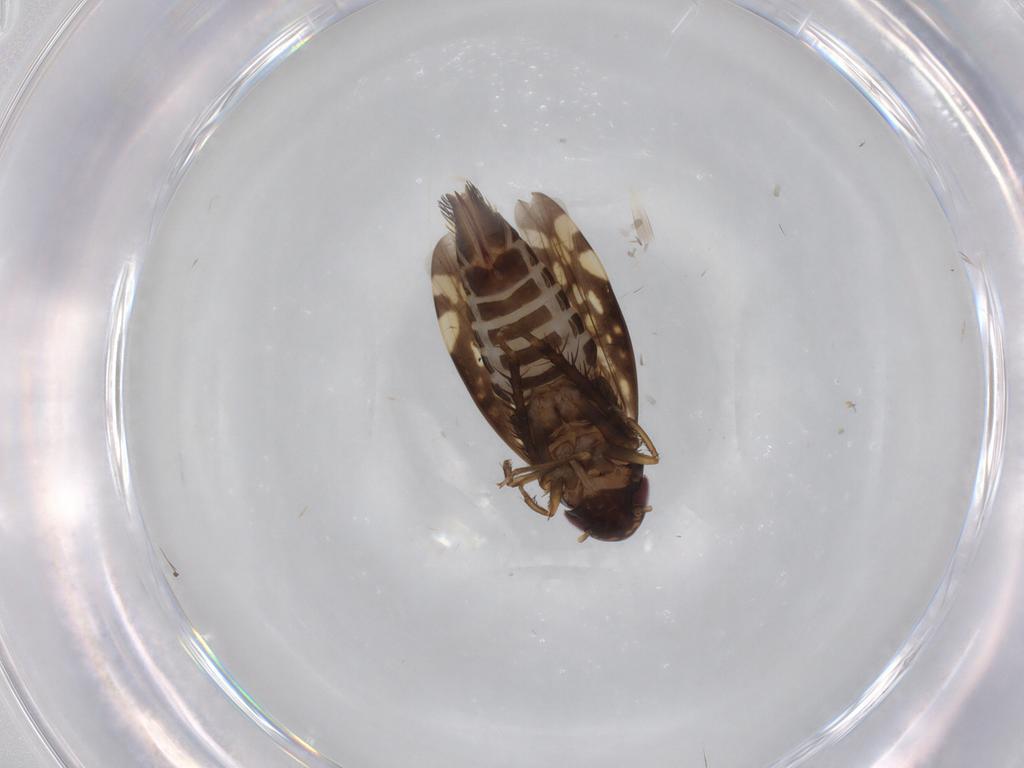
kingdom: Animalia
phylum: Arthropoda
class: Insecta
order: Hemiptera
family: Cicadellidae
